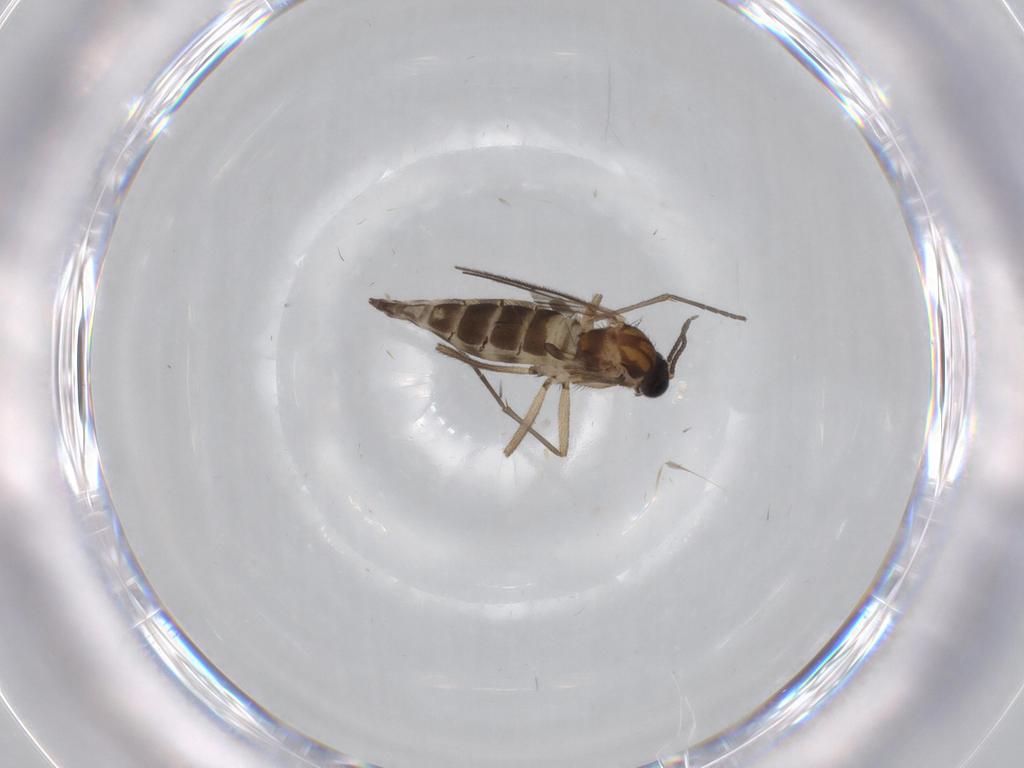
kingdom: Animalia
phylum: Arthropoda
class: Insecta
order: Diptera
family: Sciaridae
